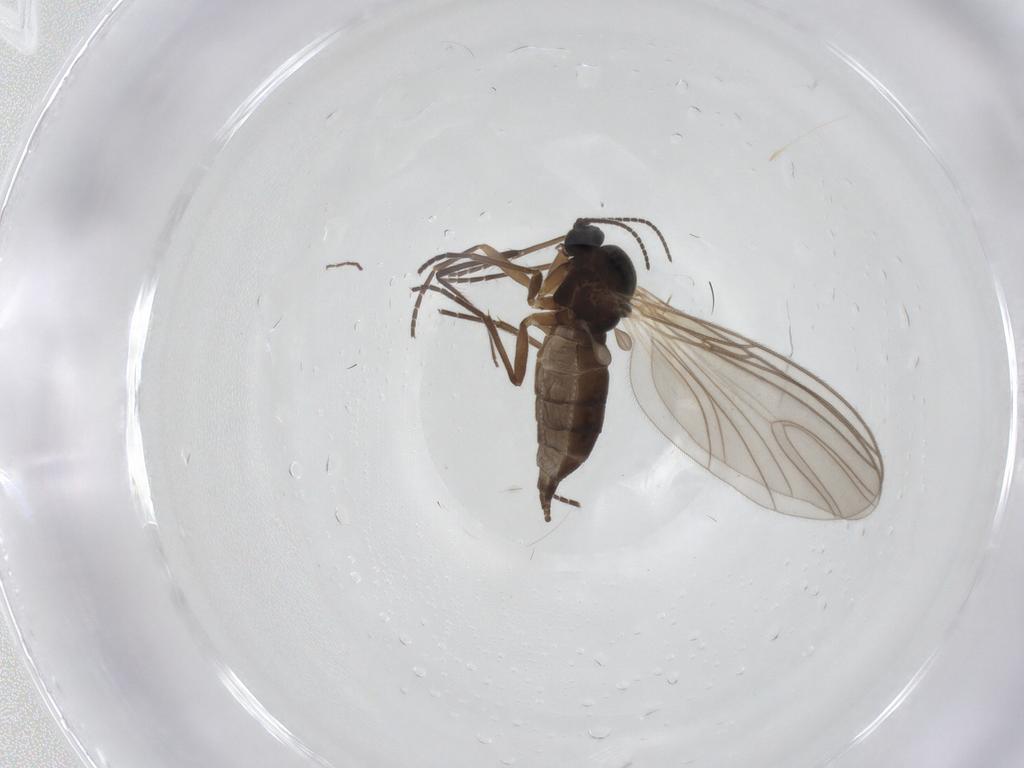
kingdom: Animalia
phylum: Arthropoda
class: Insecta
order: Diptera
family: Sciaridae
